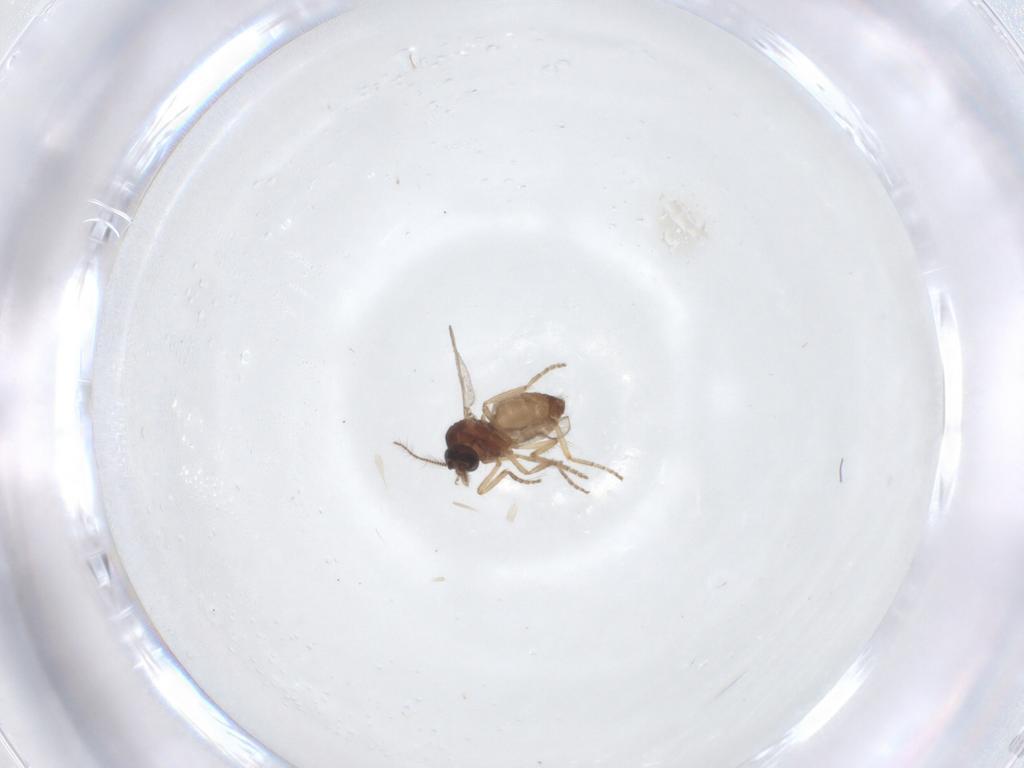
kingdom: Animalia
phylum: Arthropoda
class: Insecta
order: Diptera
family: Ceratopogonidae
